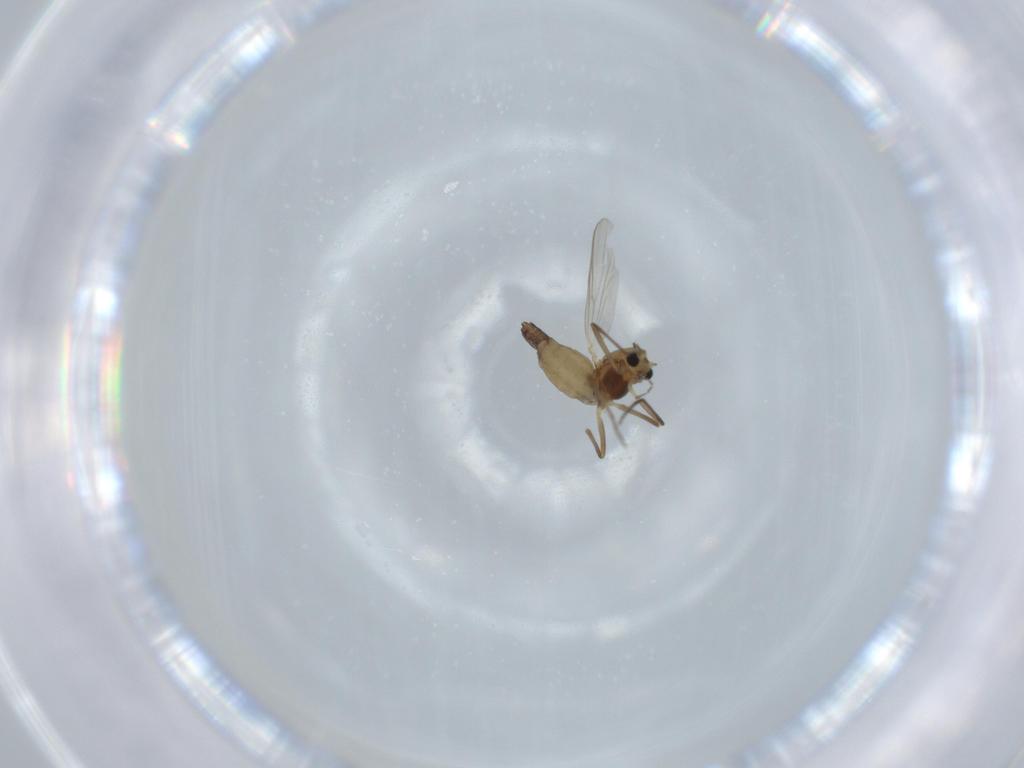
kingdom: Animalia
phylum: Arthropoda
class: Insecta
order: Diptera
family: Chironomidae
